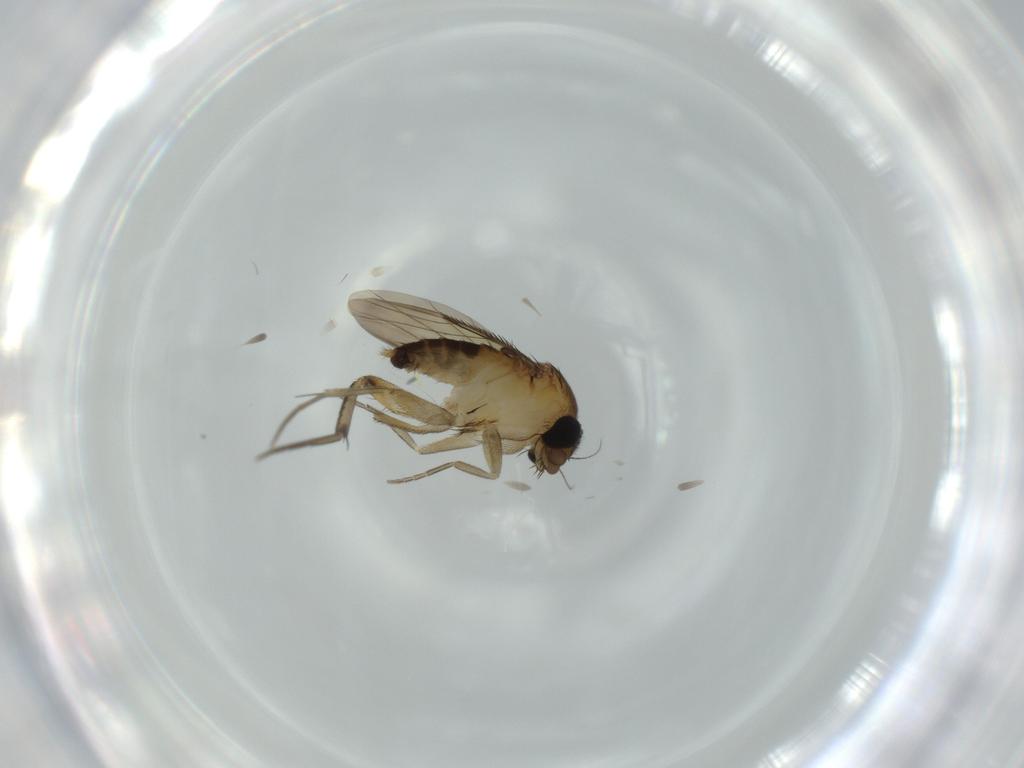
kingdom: Animalia
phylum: Arthropoda
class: Insecta
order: Diptera
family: Phoridae
